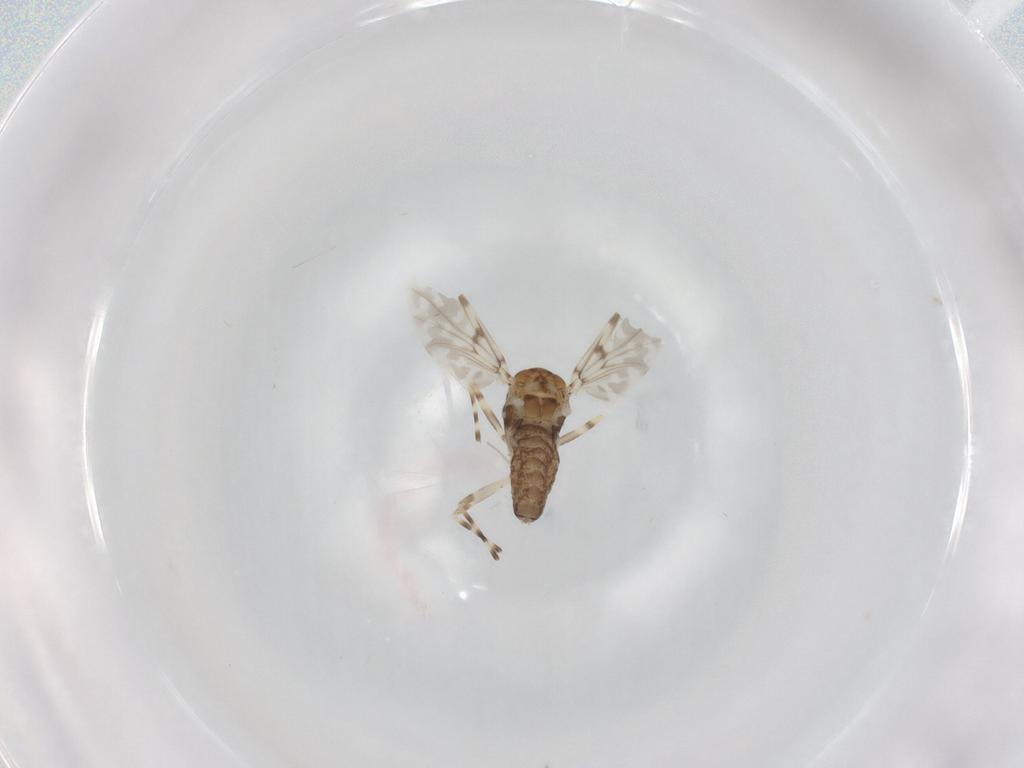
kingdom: Animalia
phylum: Arthropoda
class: Insecta
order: Diptera
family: Chironomidae
